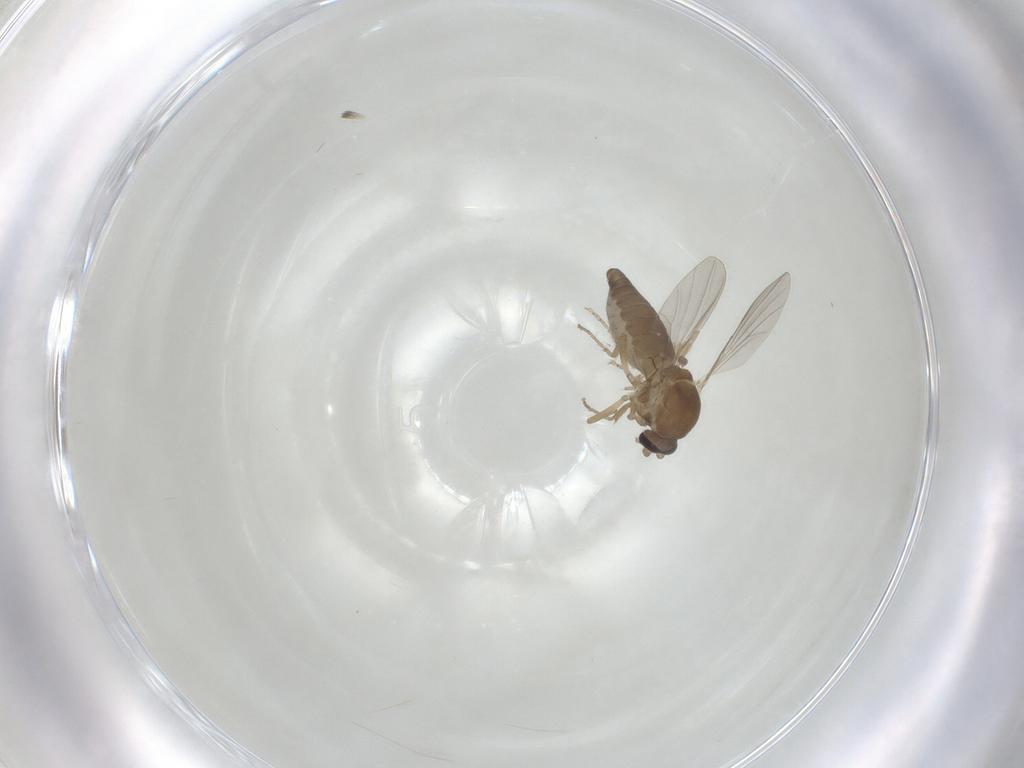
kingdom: Animalia
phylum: Arthropoda
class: Insecta
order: Diptera
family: Ceratopogonidae
